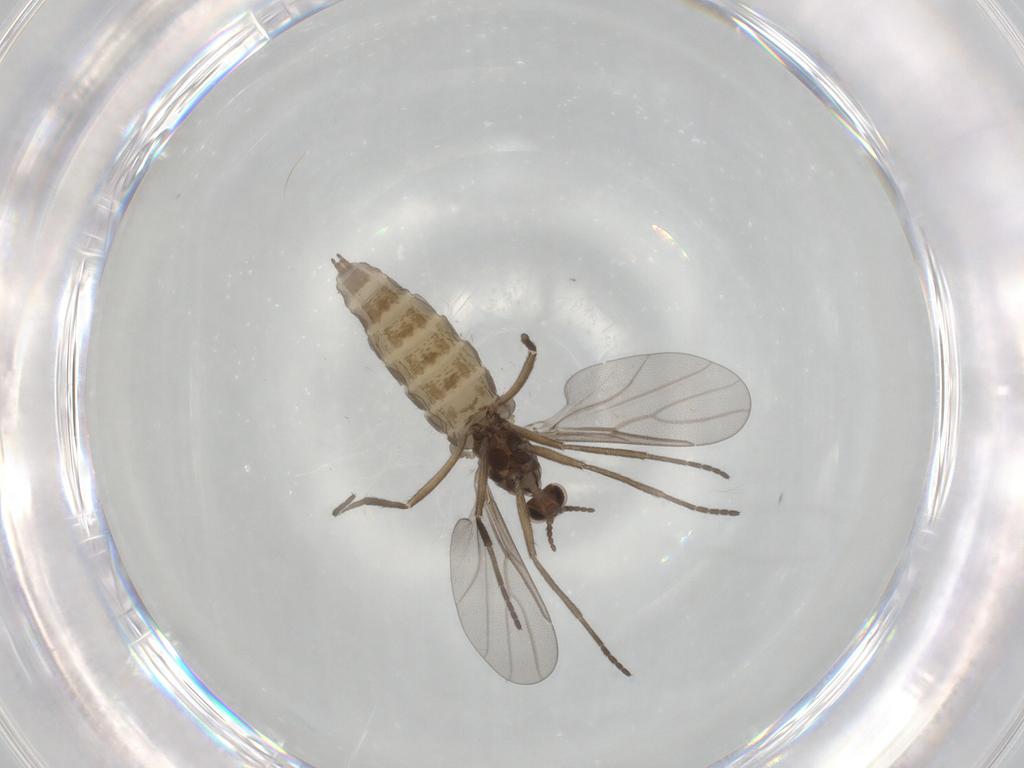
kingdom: Animalia
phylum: Arthropoda
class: Insecta
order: Diptera
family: Cecidomyiidae
